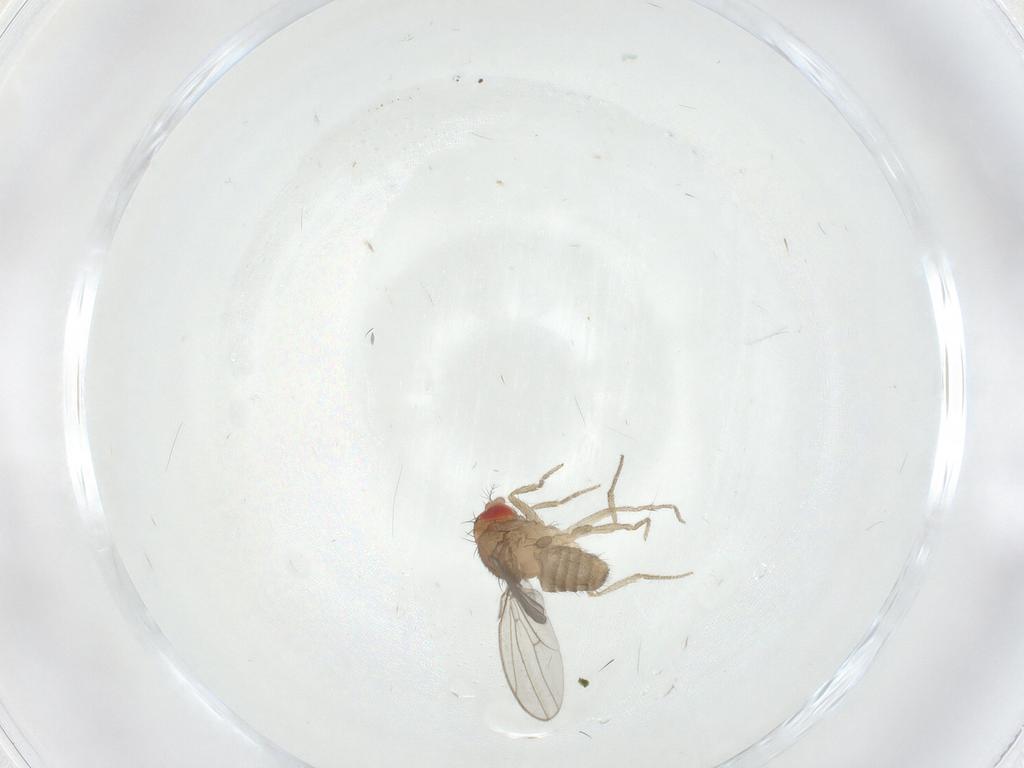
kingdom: Animalia
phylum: Arthropoda
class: Insecta
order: Diptera
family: Drosophilidae
